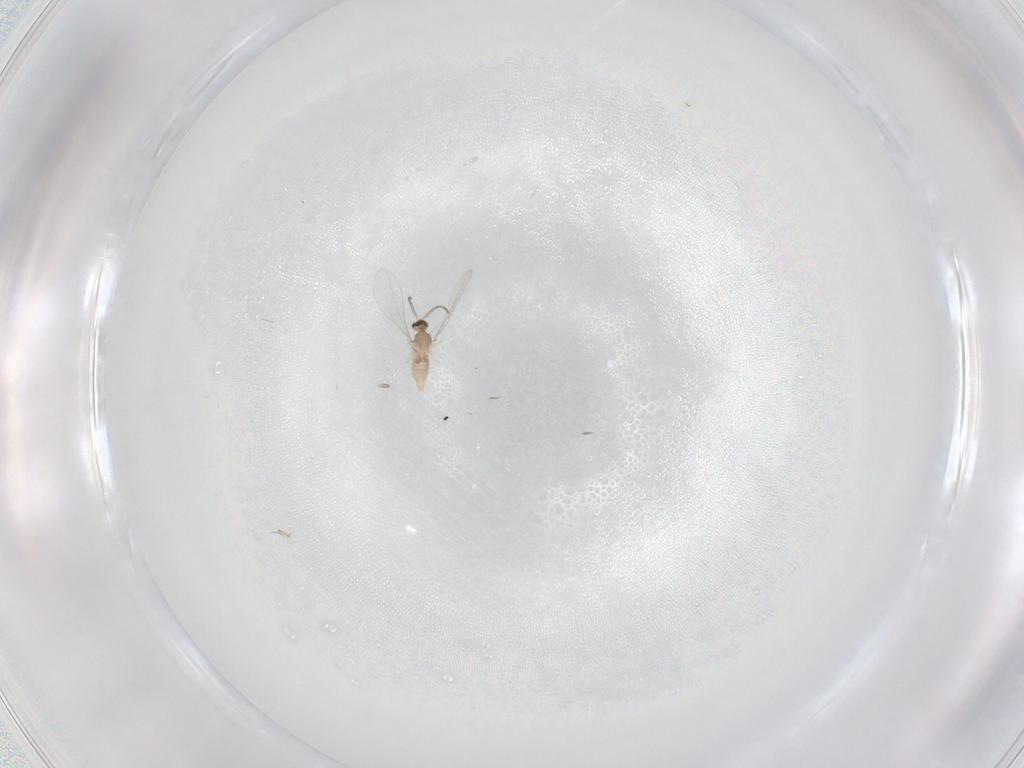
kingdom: Animalia
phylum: Arthropoda
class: Insecta
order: Diptera
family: Cecidomyiidae
